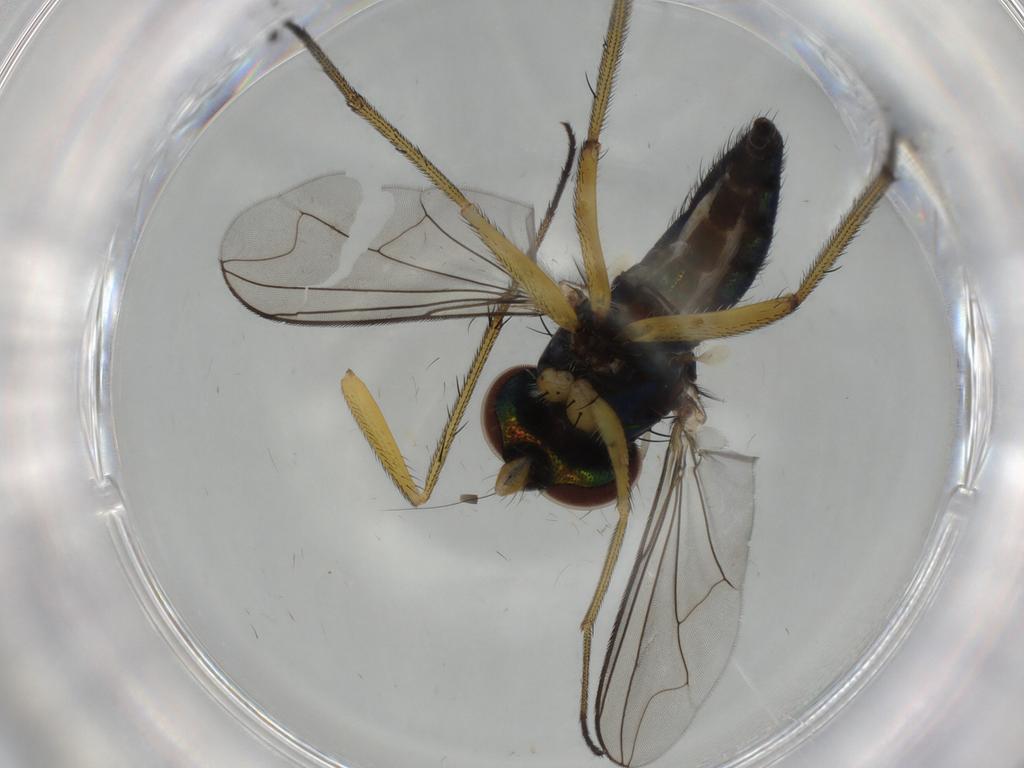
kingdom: Animalia
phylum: Arthropoda
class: Insecta
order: Diptera
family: Dolichopodidae
